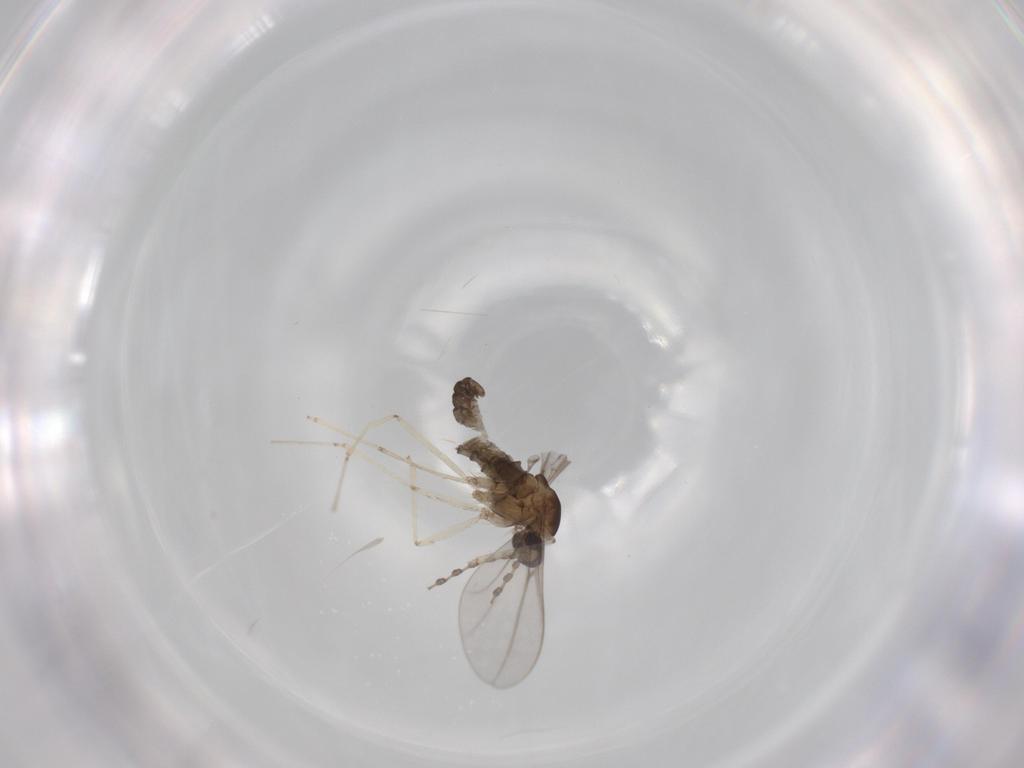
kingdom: Animalia
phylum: Arthropoda
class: Insecta
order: Diptera
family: Cecidomyiidae
